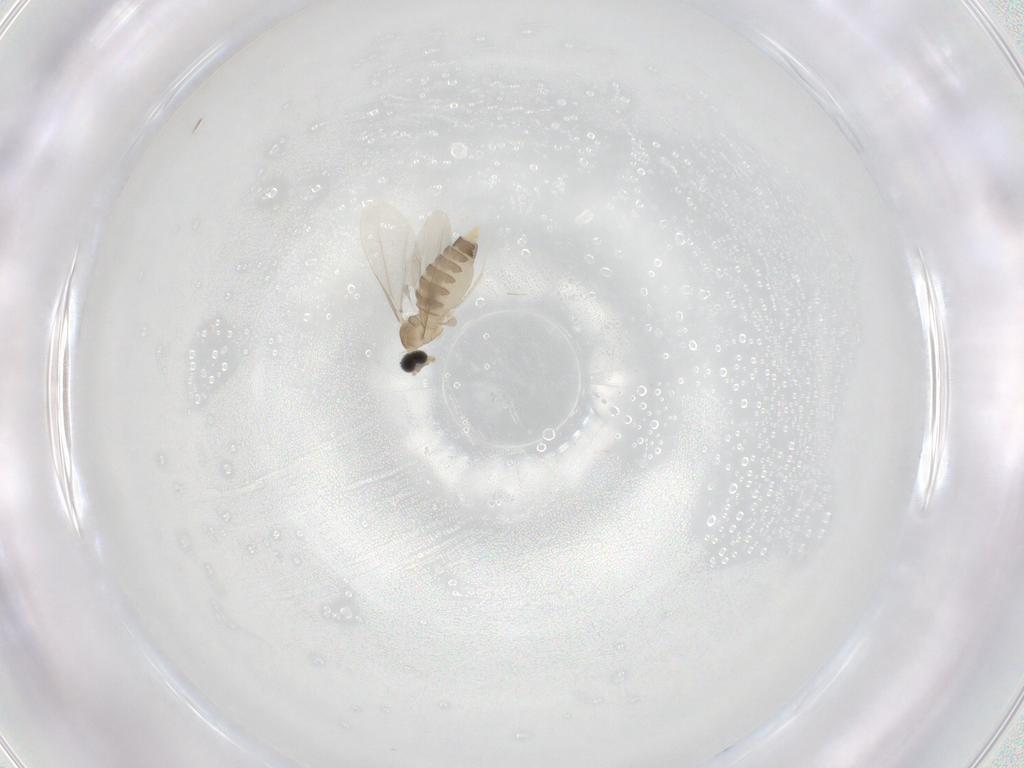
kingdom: Animalia
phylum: Arthropoda
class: Insecta
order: Diptera
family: Cecidomyiidae
